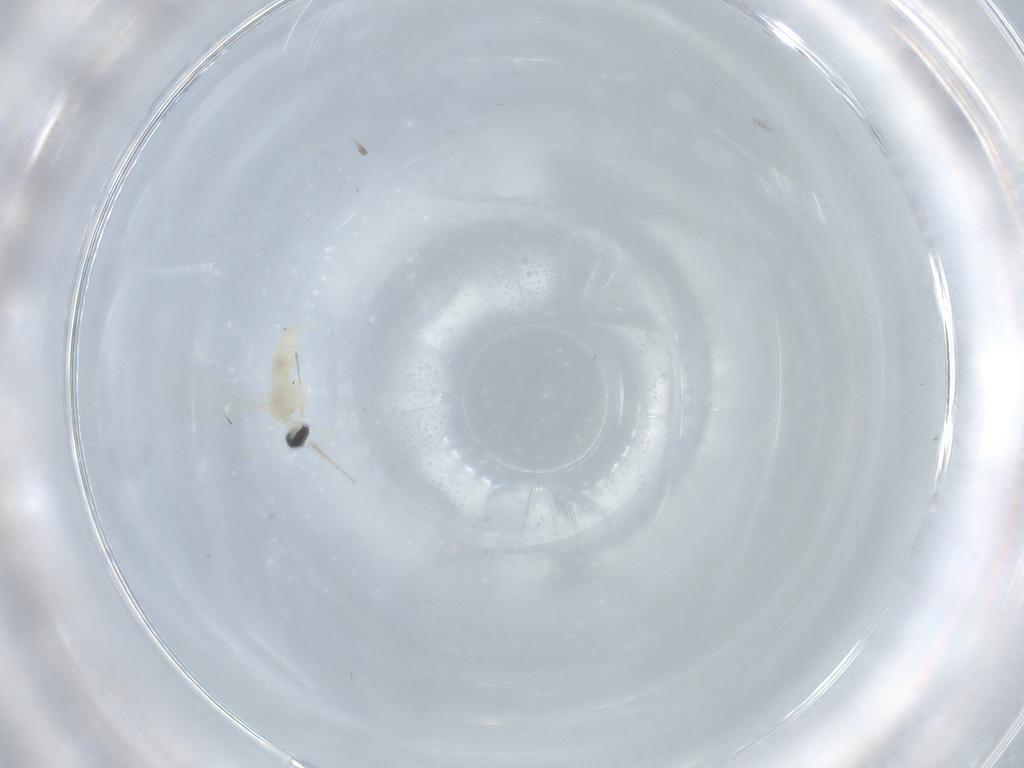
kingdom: Animalia
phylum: Arthropoda
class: Insecta
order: Diptera
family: Cecidomyiidae
